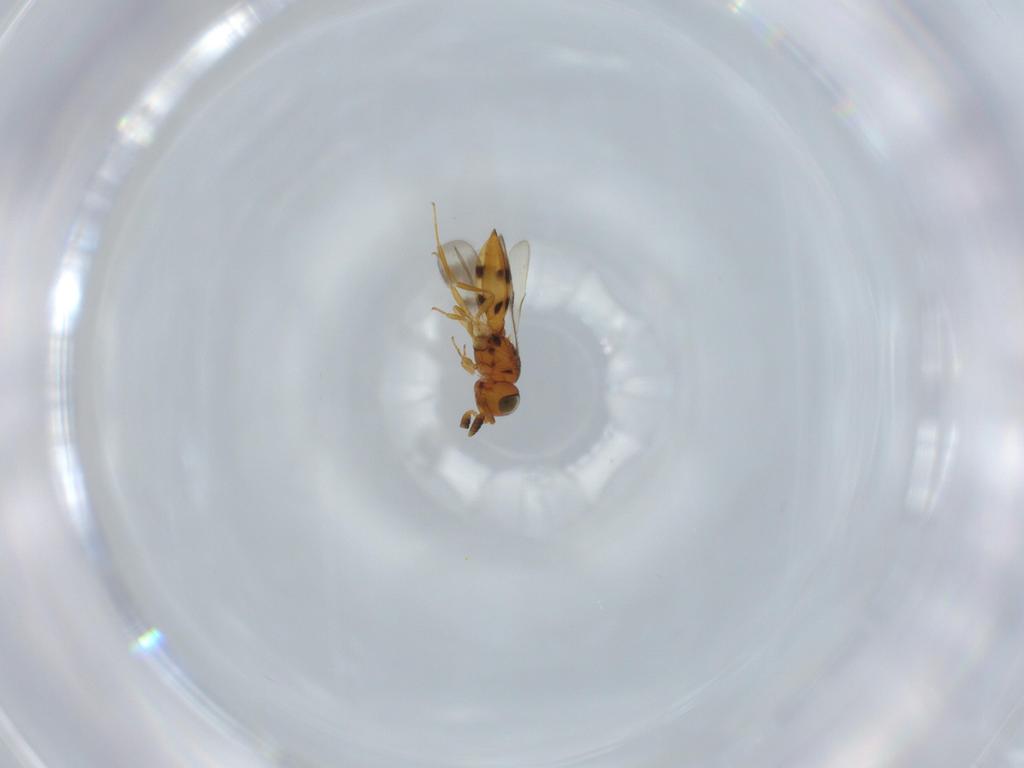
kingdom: Animalia
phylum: Arthropoda
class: Insecta
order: Hymenoptera
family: Scelionidae
